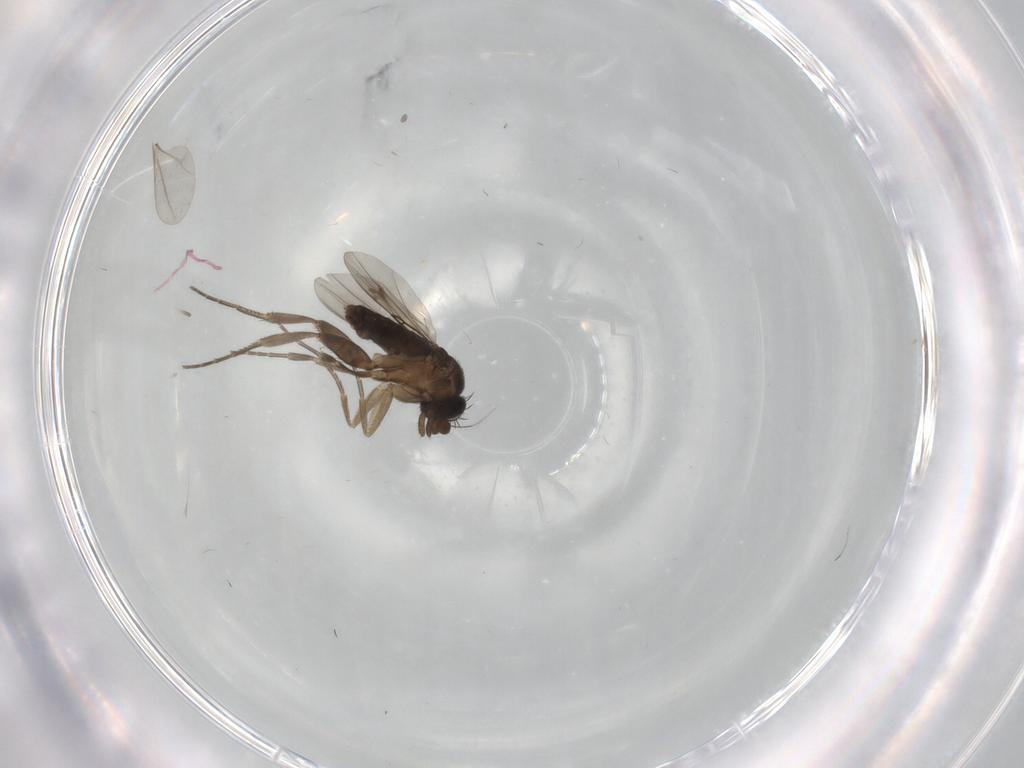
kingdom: Animalia
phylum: Arthropoda
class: Insecta
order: Diptera
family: Phoridae
